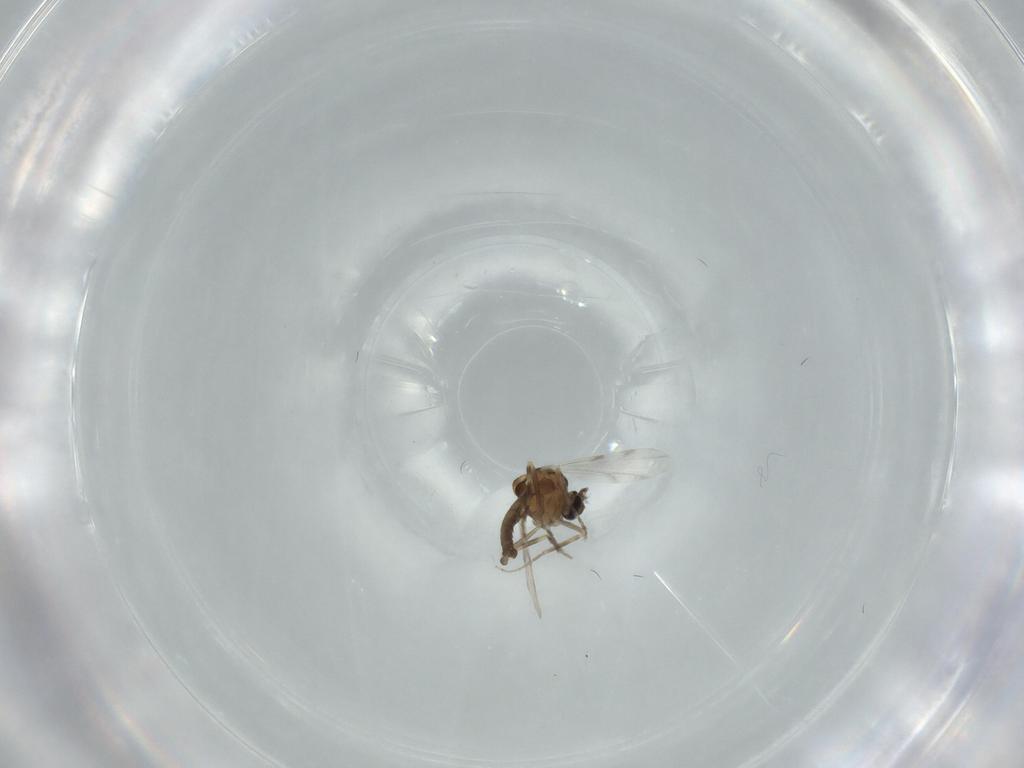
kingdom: Animalia
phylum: Arthropoda
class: Insecta
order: Diptera
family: Ceratopogonidae
